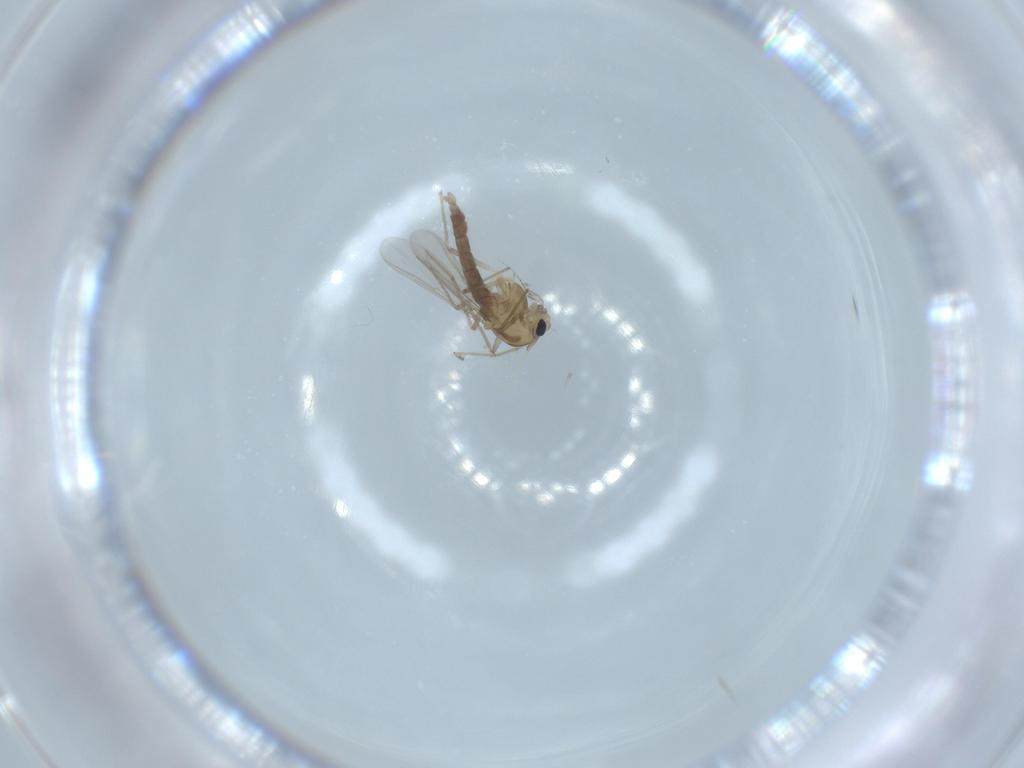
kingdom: Animalia
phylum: Arthropoda
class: Insecta
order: Diptera
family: Chironomidae
